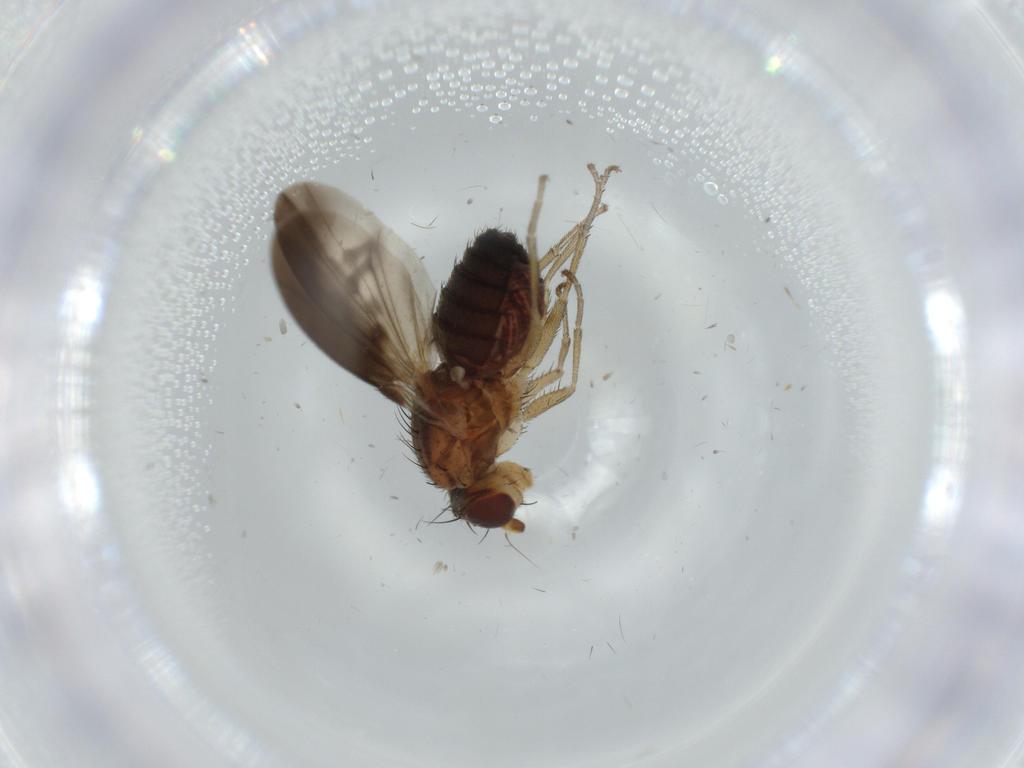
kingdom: Animalia
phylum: Arthropoda
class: Insecta
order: Diptera
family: Heleomyzidae
